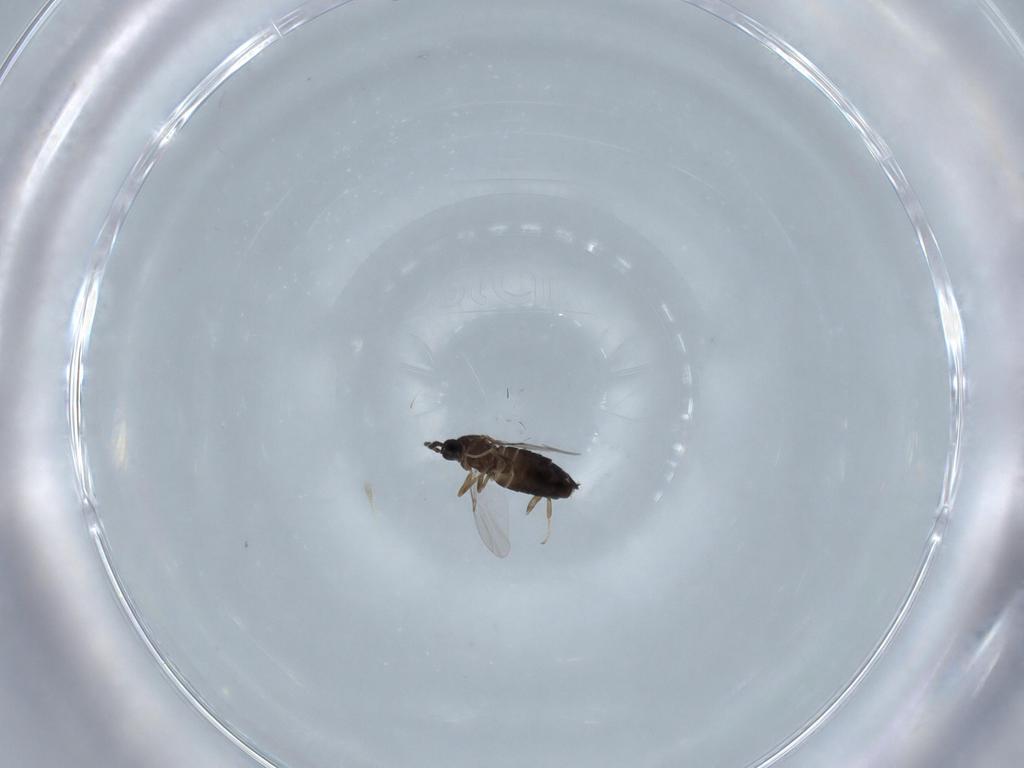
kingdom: Animalia
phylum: Arthropoda
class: Insecta
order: Diptera
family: Scatopsidae
